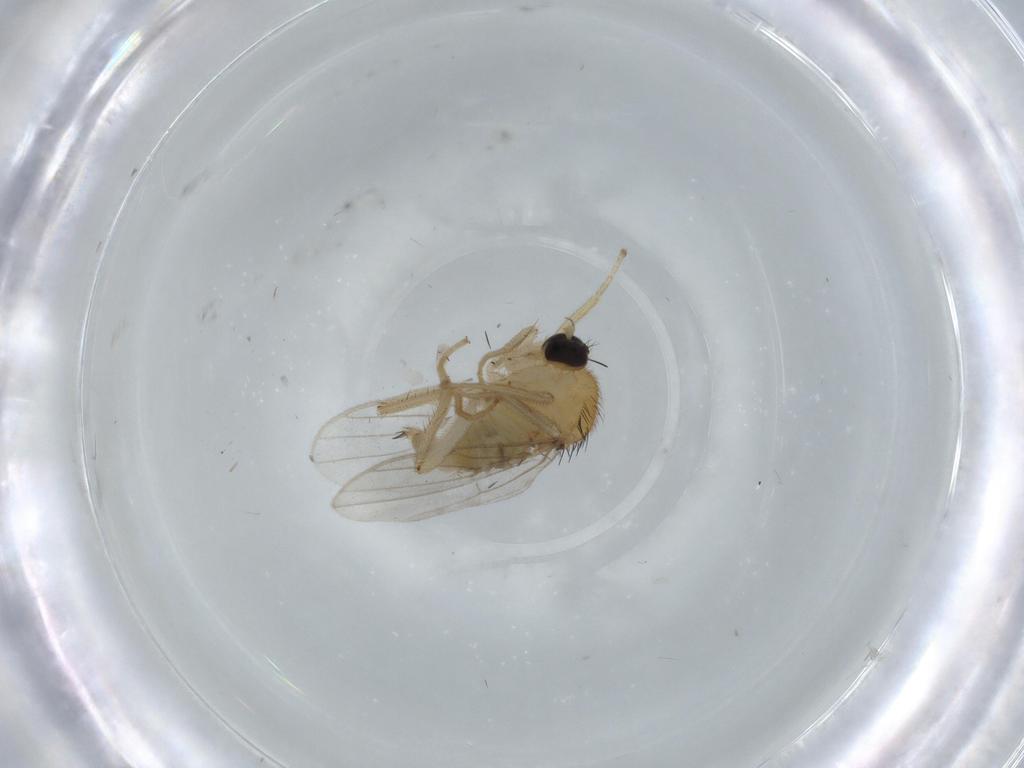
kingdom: Animalia
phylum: Arthropoda
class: Insecta
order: Diptera
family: Hybotidae
